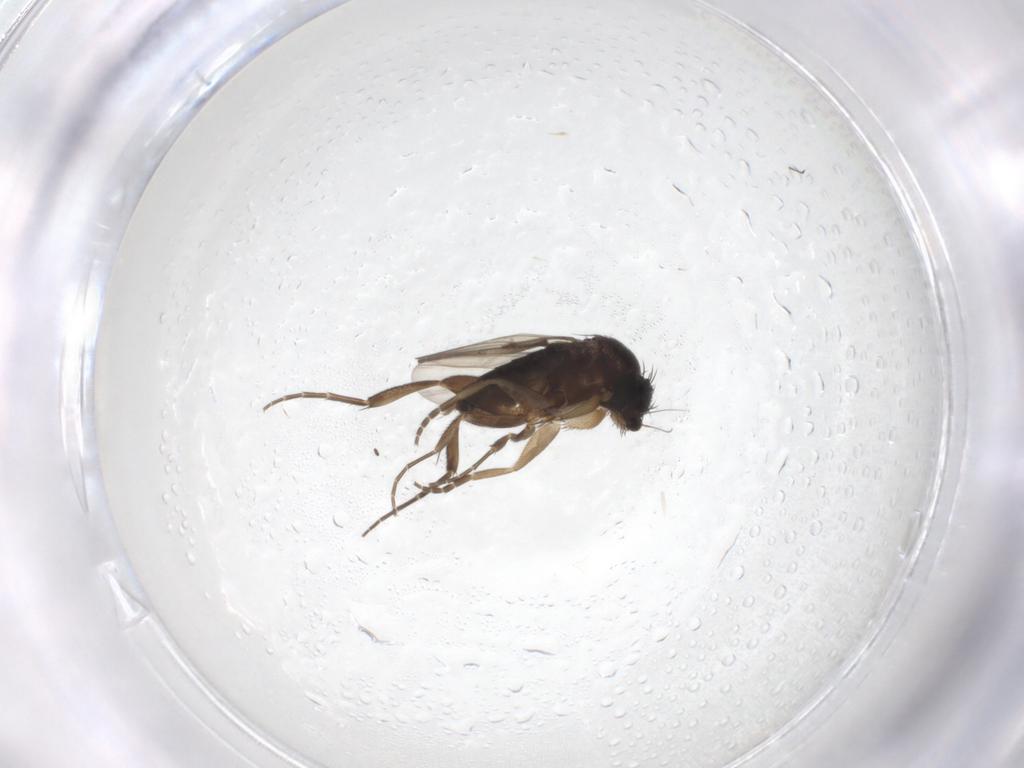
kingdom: Animalia
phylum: Arthropoda
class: Insecta
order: Diptera
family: Phoridae
